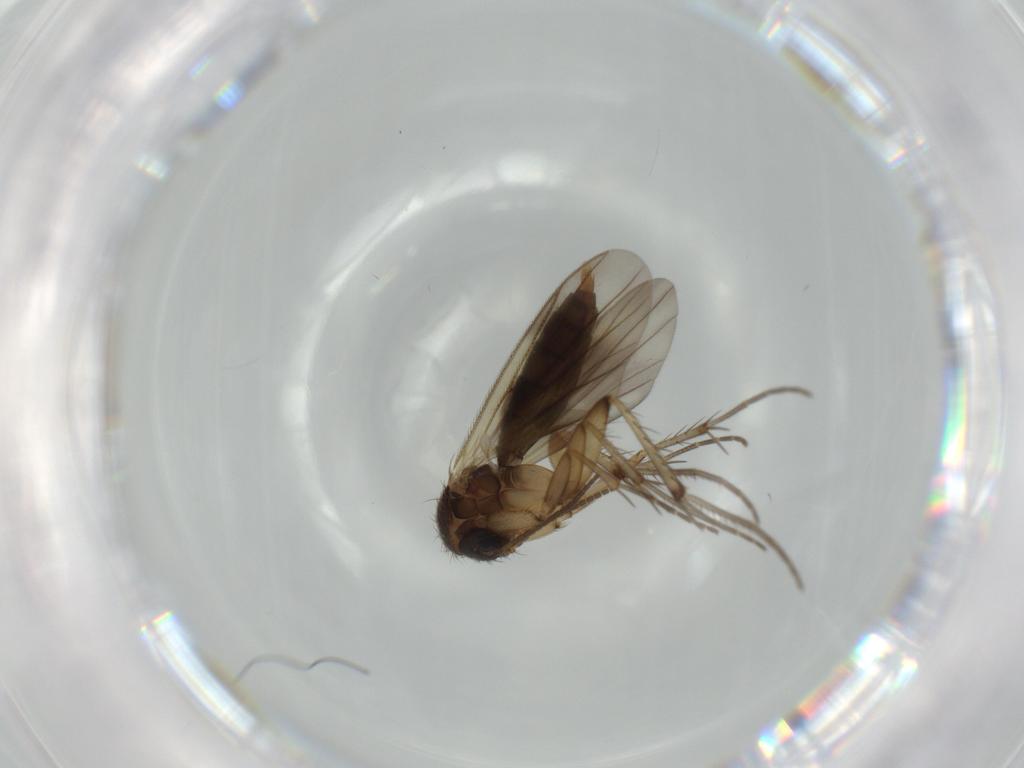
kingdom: Animalia
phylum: Arthropoda
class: Insecta
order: Diptera
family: Mycetophilidae
